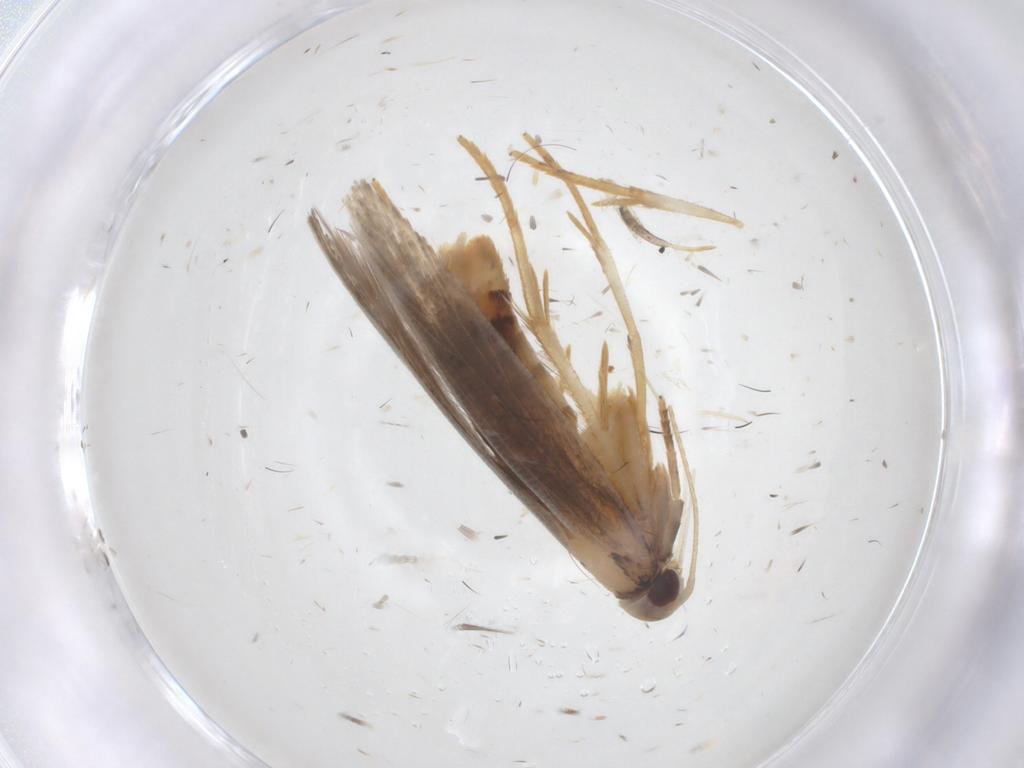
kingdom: Animalia
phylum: Arthropoda
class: Insecta
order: Lepidoptera
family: Cosmopterigidae
